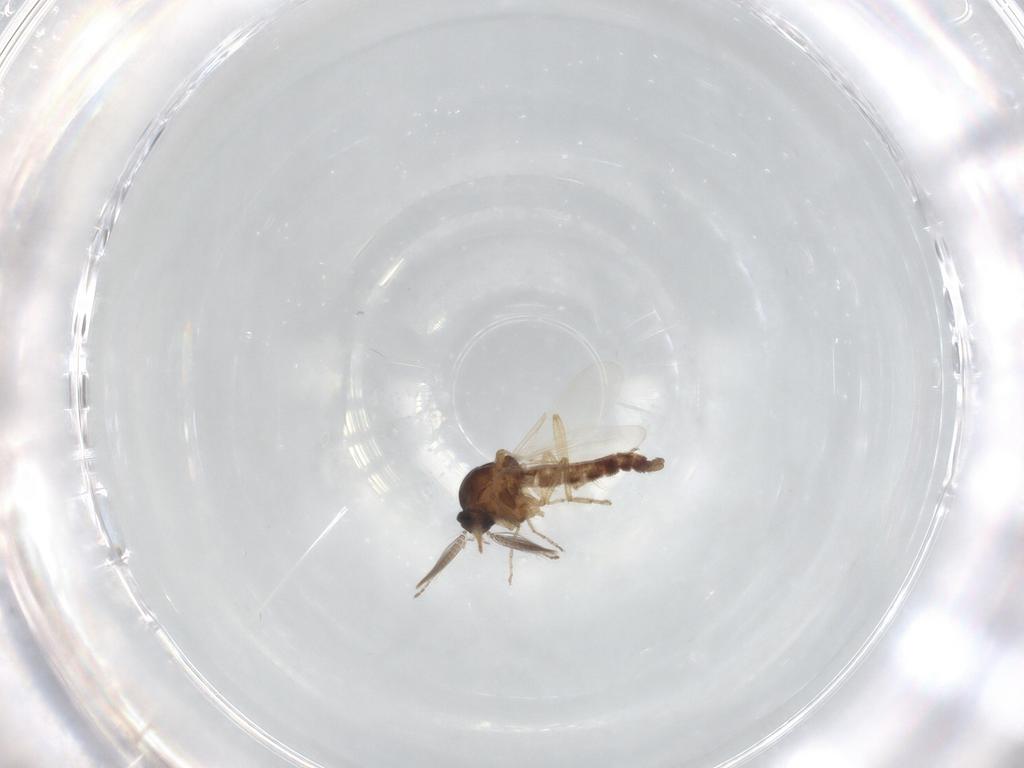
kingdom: Animalia
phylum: Arthropoda
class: Insecta
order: Diptera
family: Ceratopogonidae
